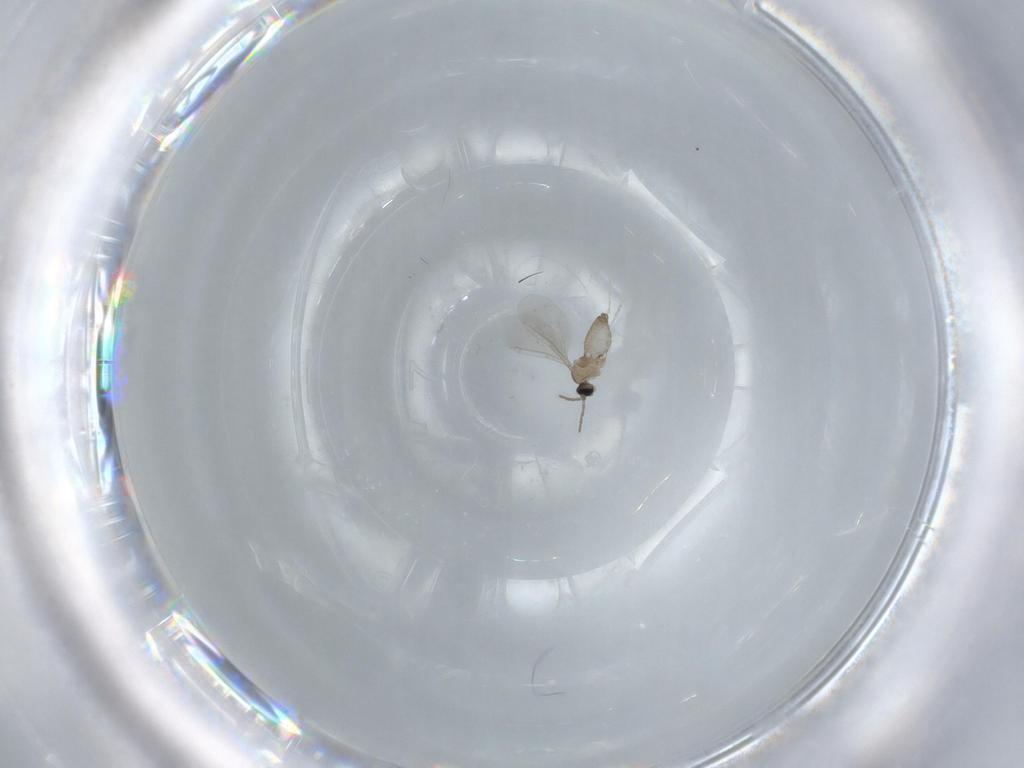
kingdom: Animalia
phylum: Arthropoda
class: Insecta
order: Diptera
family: Cecidomyiidae
